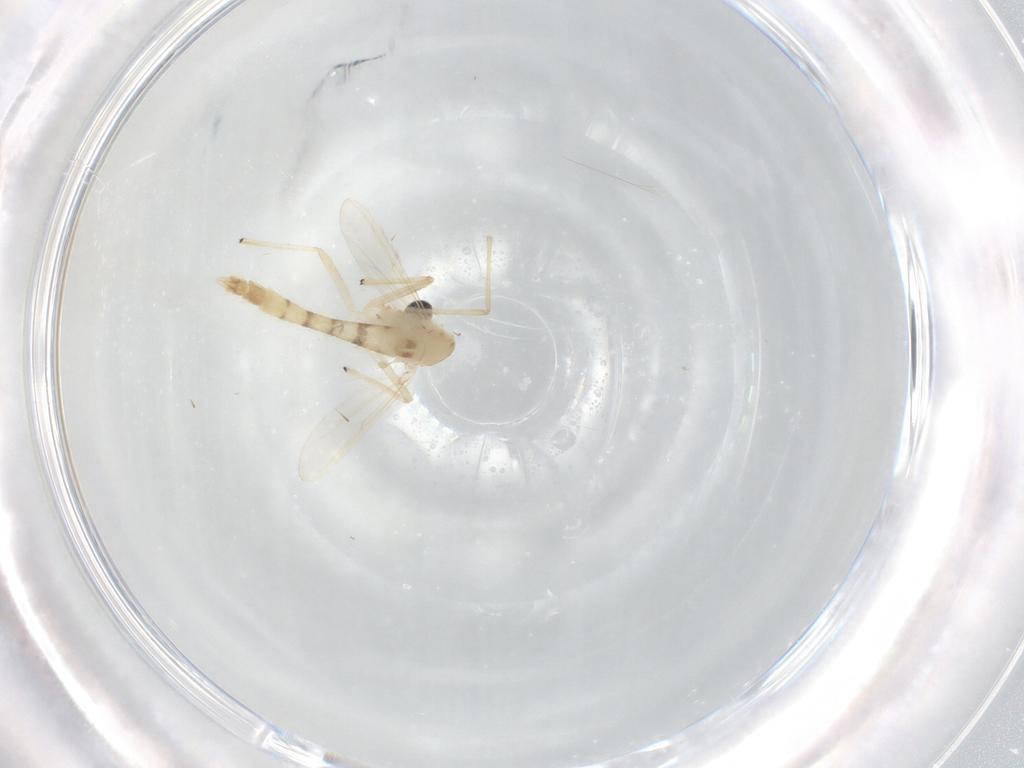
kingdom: Animalia
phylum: Arthropoda
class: Insecta
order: Diptera
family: Chironomidae
